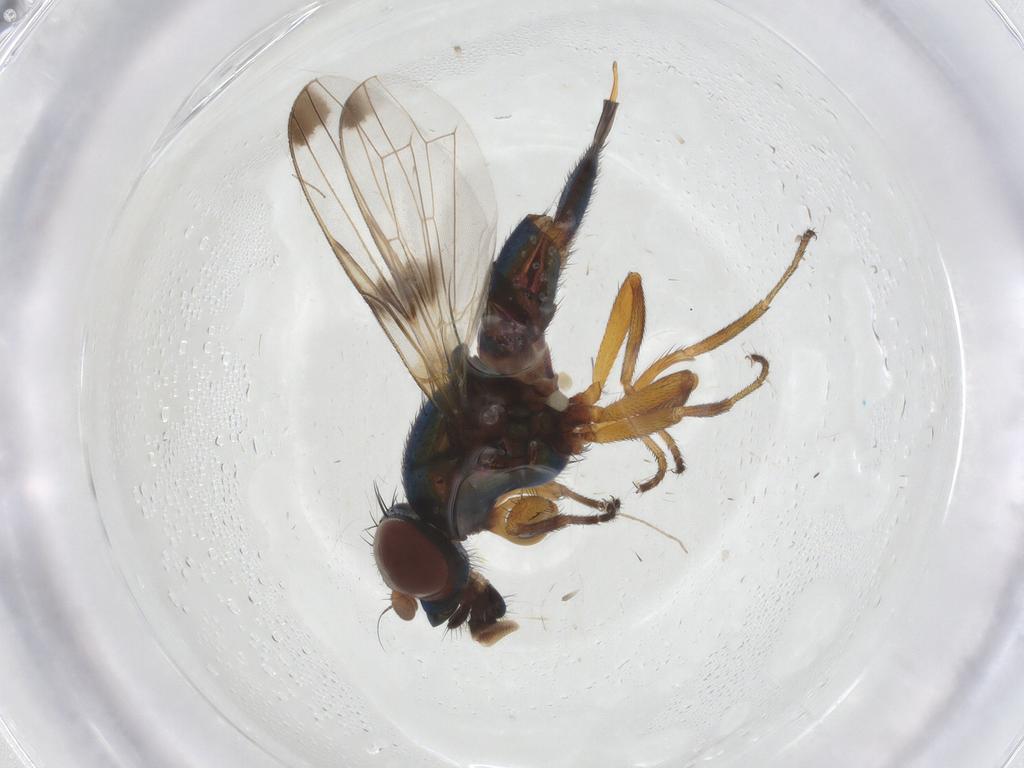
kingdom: Animalia
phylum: Arthropoda
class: Insecta
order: Diptera
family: Ulidiidae
